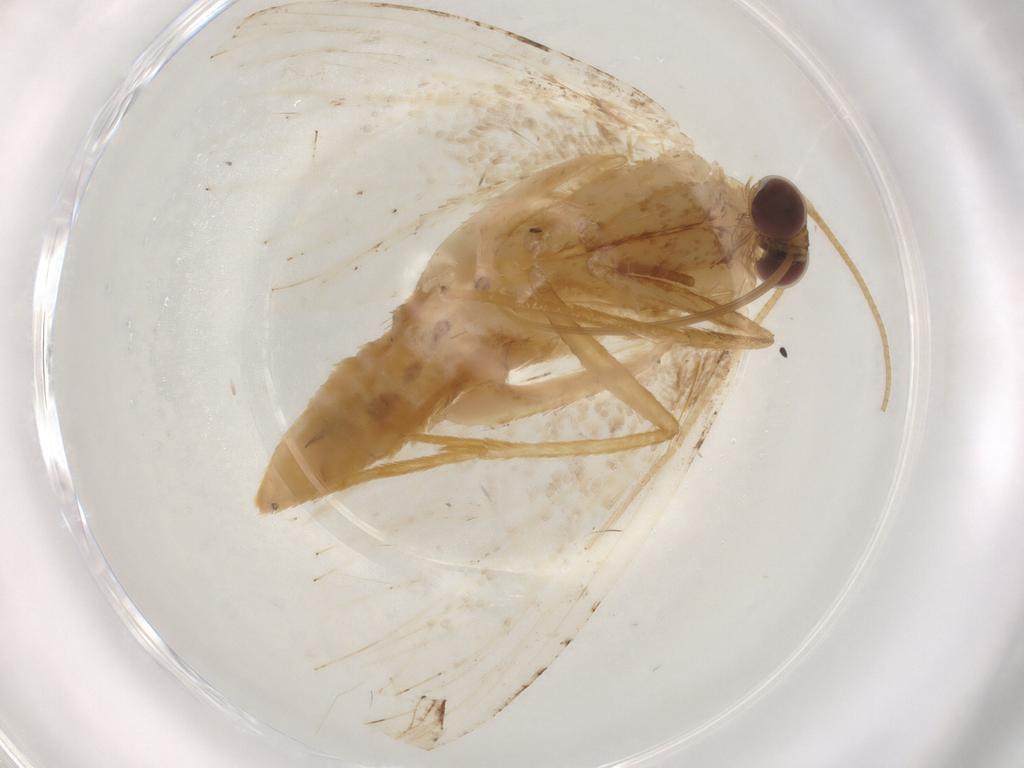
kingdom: Animalia
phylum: Arthropoda
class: Insecta
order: Lepidoptera
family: Geometridae
